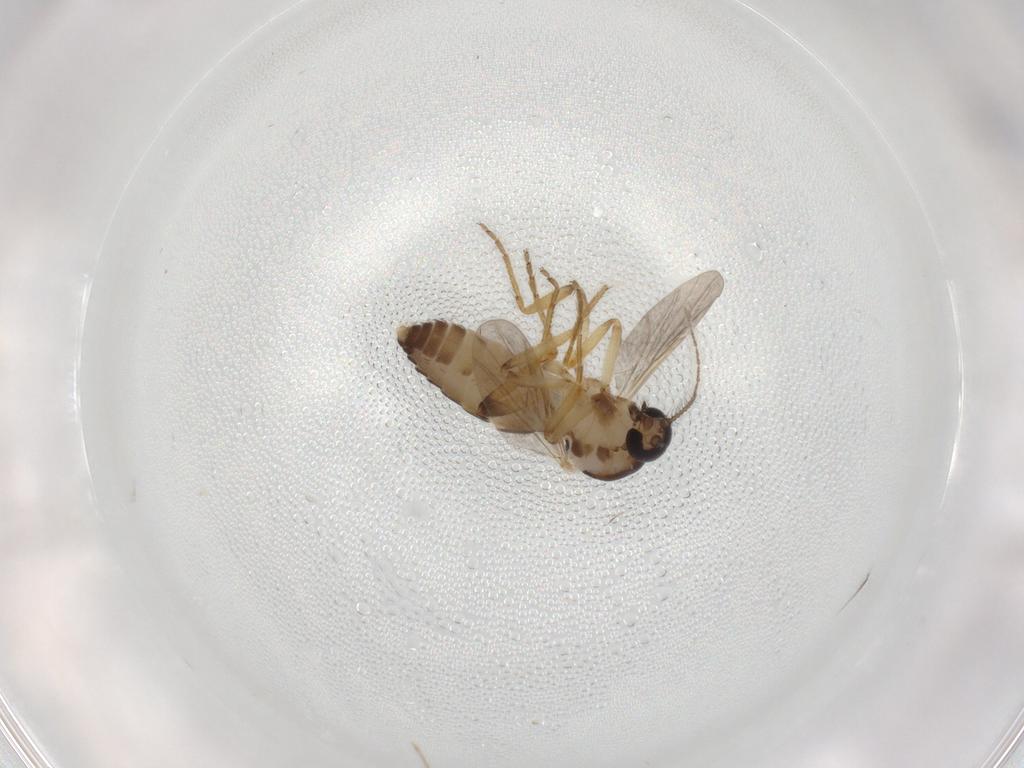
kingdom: Animalia
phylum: Arthropoda
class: Insecta
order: Diptera
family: Ceratopogonidae
